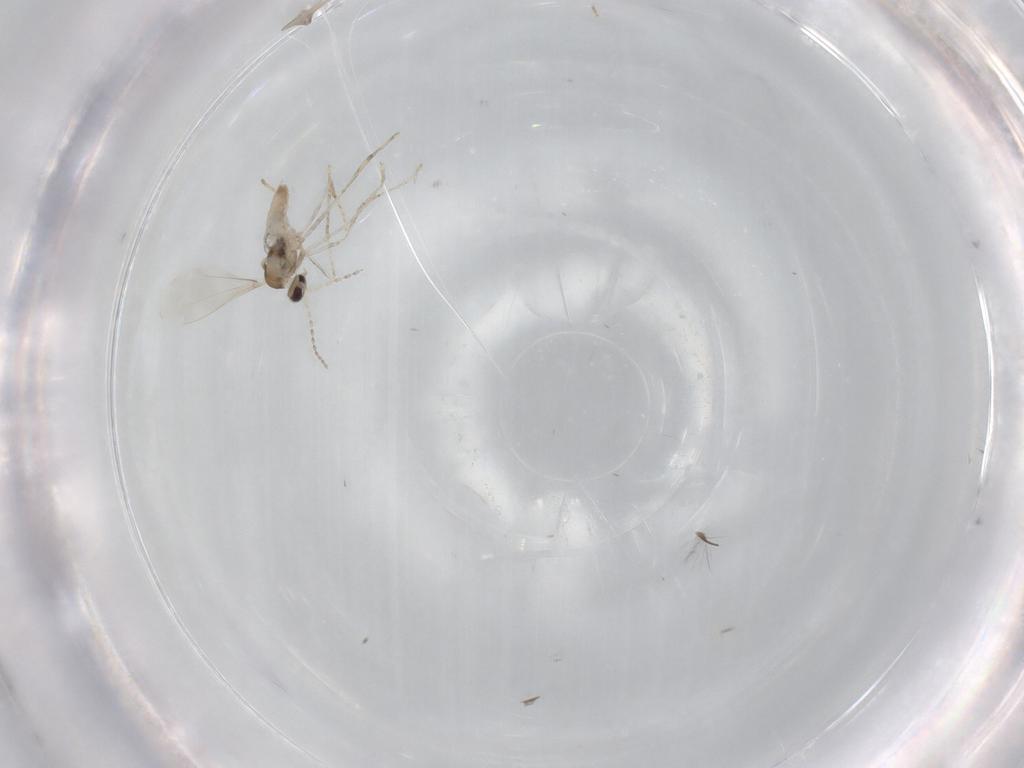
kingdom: Animalia
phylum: Arthropoda
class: Insecta
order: Diptera
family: Cecidomyiidae
